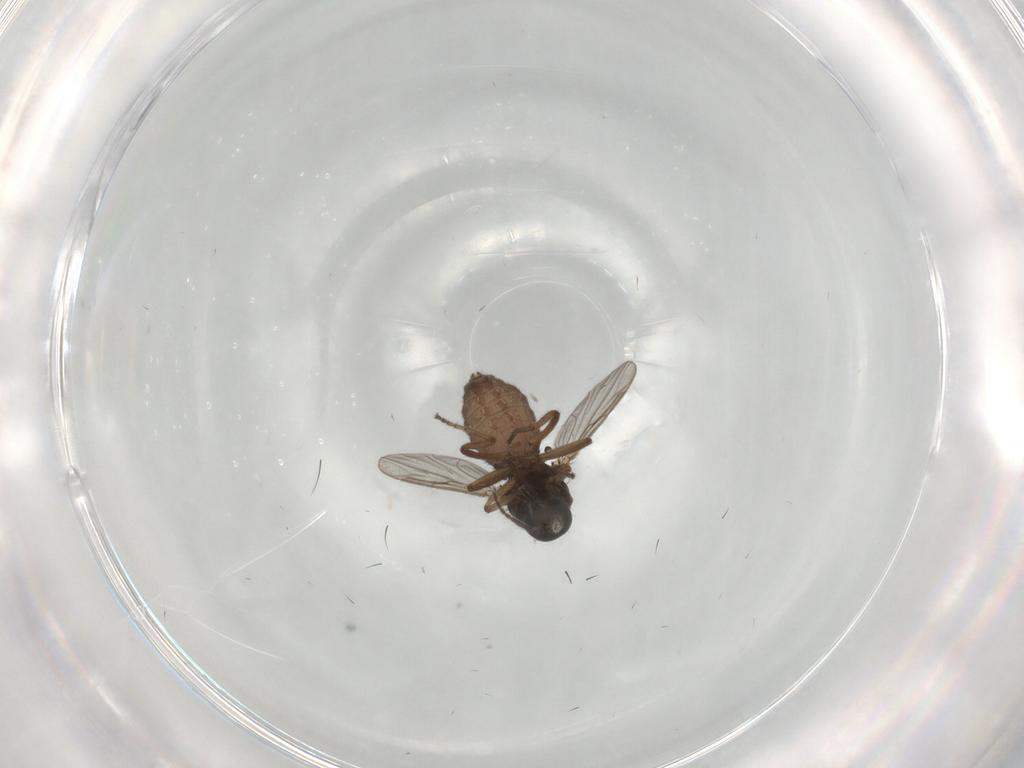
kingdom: Animalia
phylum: Arthropoda
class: Insecta
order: Diptera
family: Ceratopogonidae
